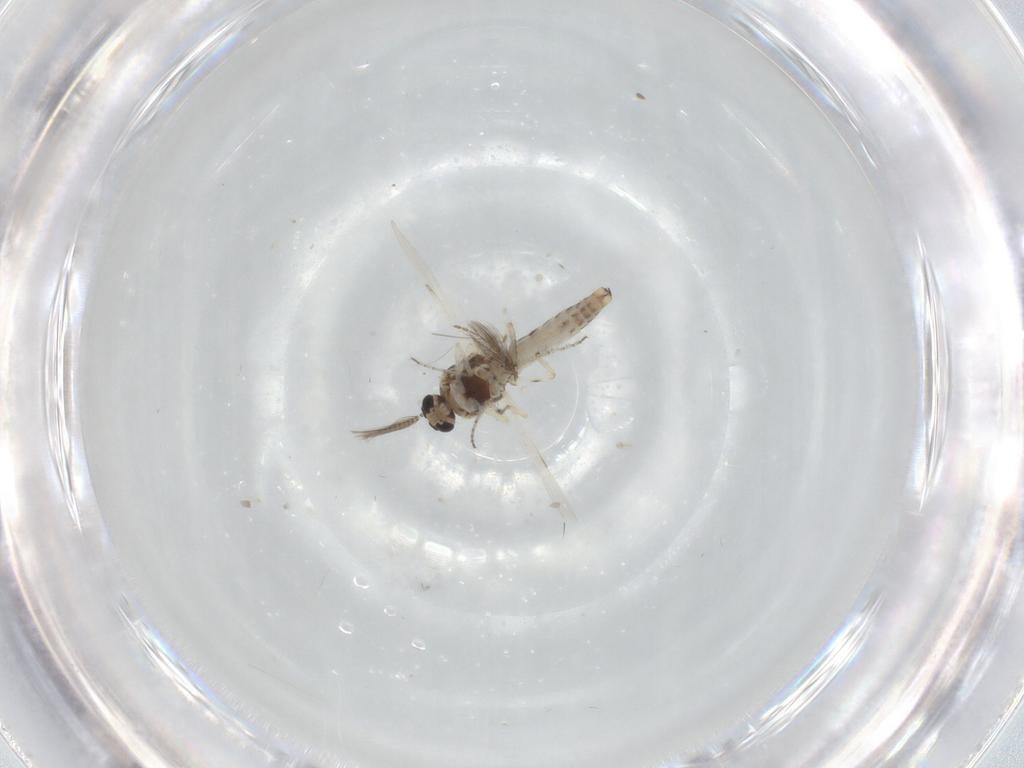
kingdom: Animalia
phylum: Arthropoda
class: Insecta
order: Diptera
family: Ceratopogonidae
